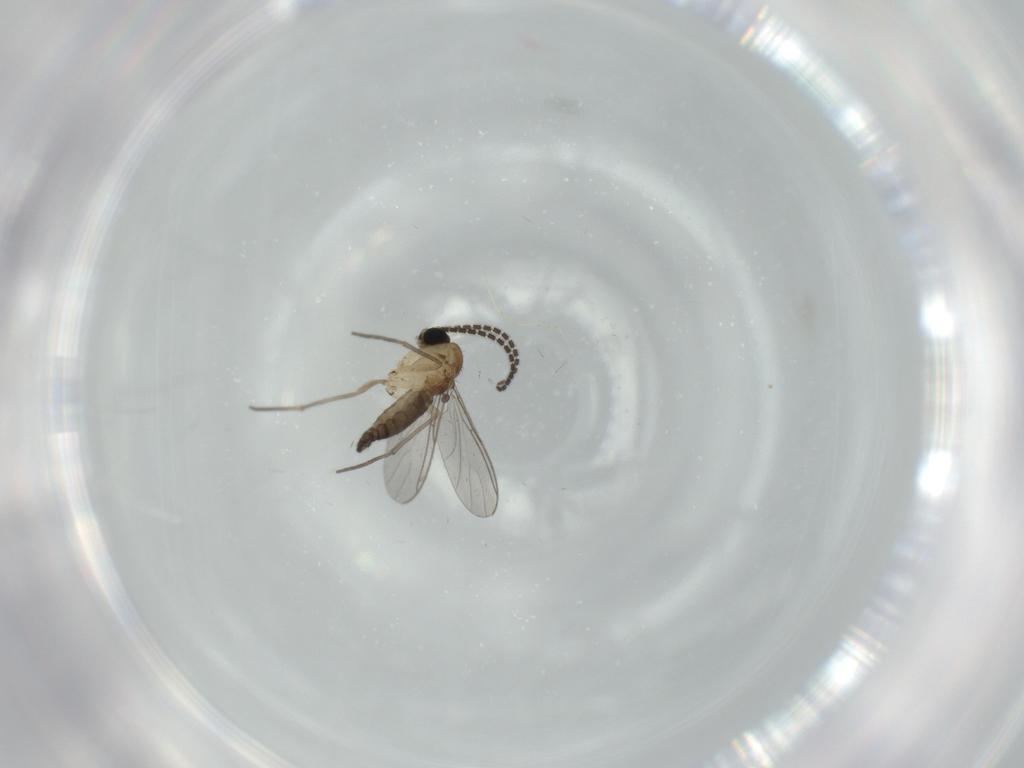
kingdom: Animalia
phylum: Arthropoda
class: Insecta
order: Diptera
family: Sciaridae
